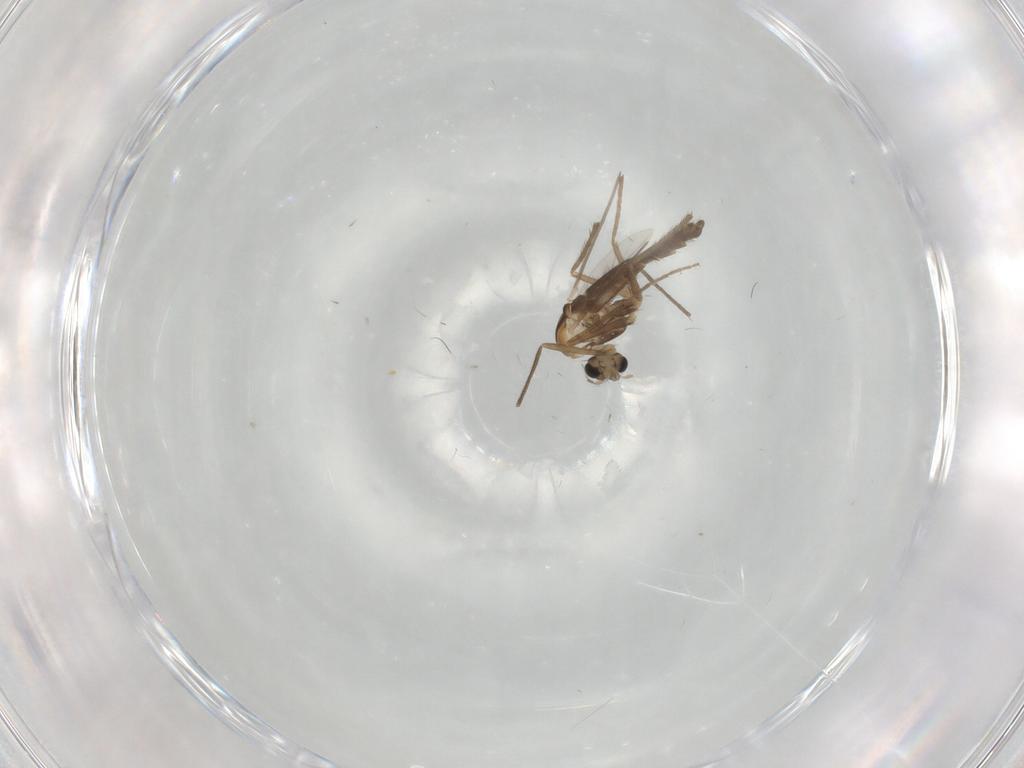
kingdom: Animalia
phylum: Arthropoda
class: Insecta
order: Diptera
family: Chironomidae
